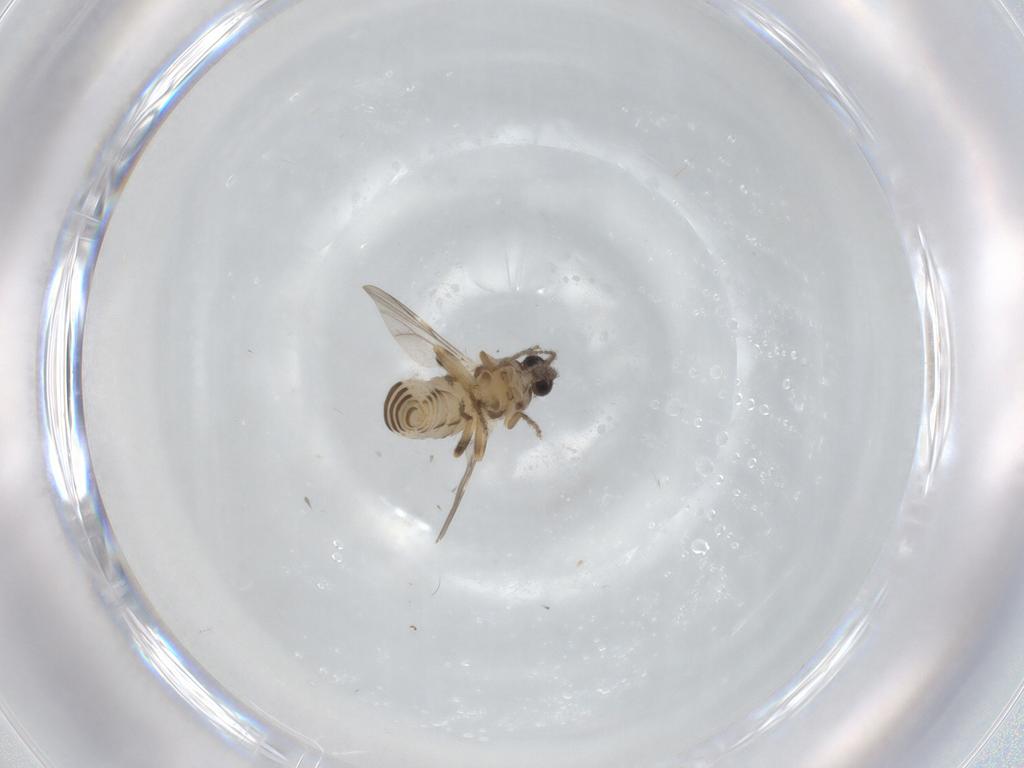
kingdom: Animalia
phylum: Arthropoda
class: Insecta
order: Diptera
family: Ceratopogonidae
